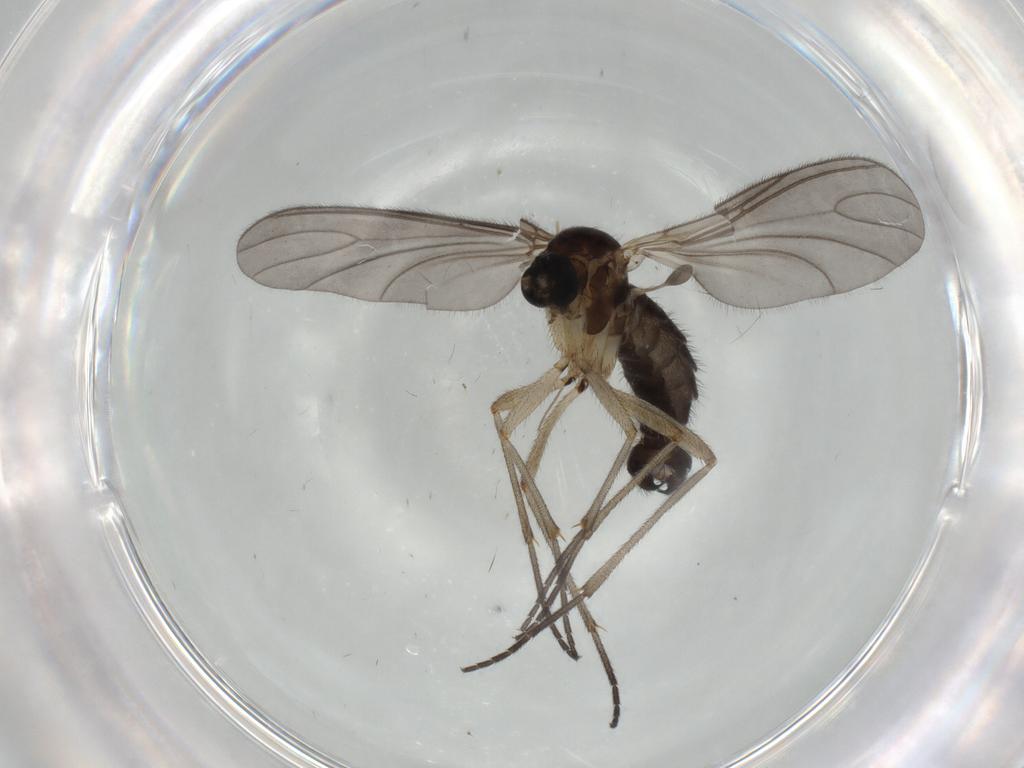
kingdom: Animalia
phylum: Arthropoda
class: Insecta
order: Diptera
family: Sciaridae
